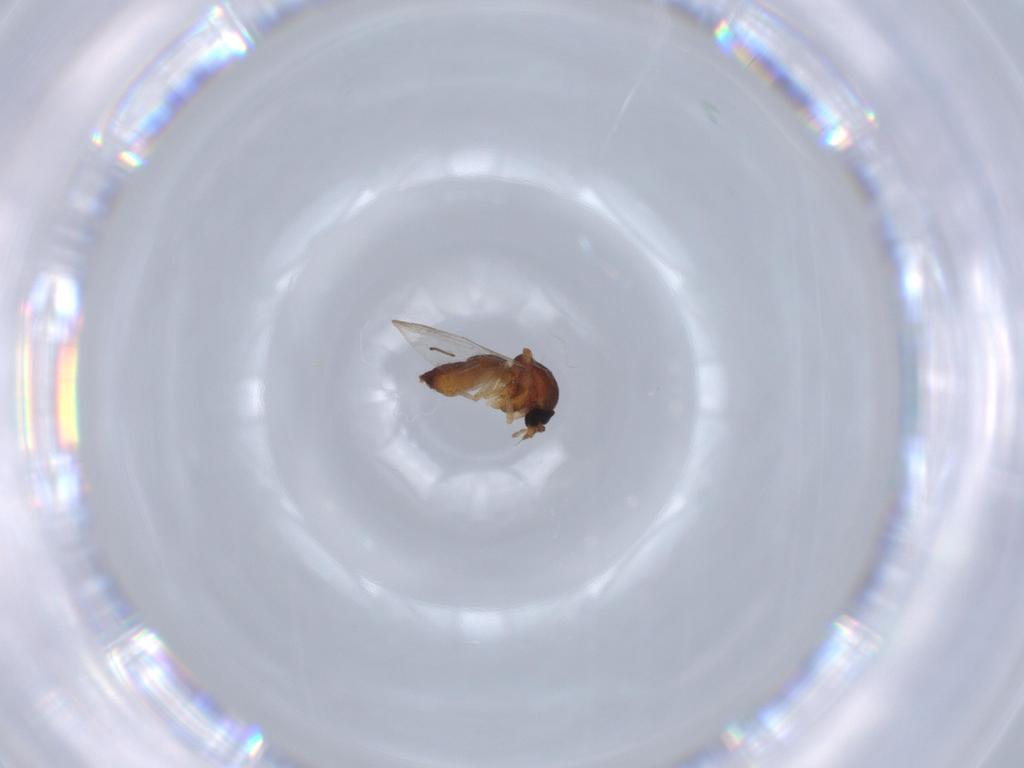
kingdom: Animalia
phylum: Arthropoda
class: Insecta
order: Diptera
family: Ceratopogonidae
